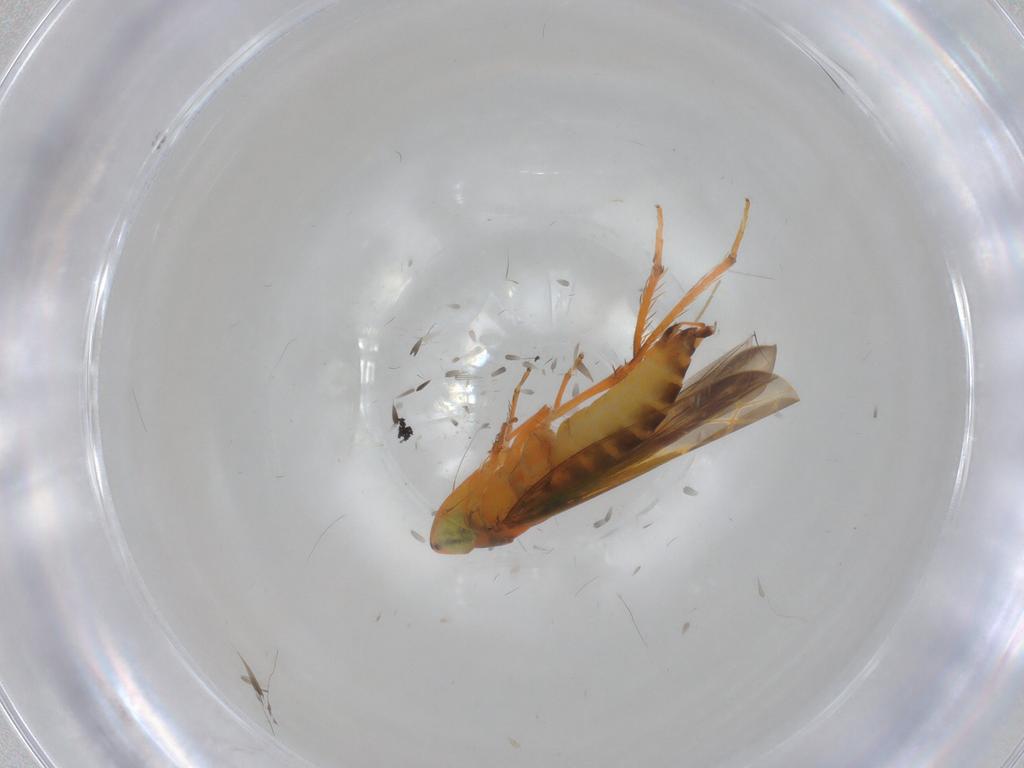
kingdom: Animalia
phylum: Arthropoda
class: Insecta
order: Hemiptera
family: Cicadellidae
